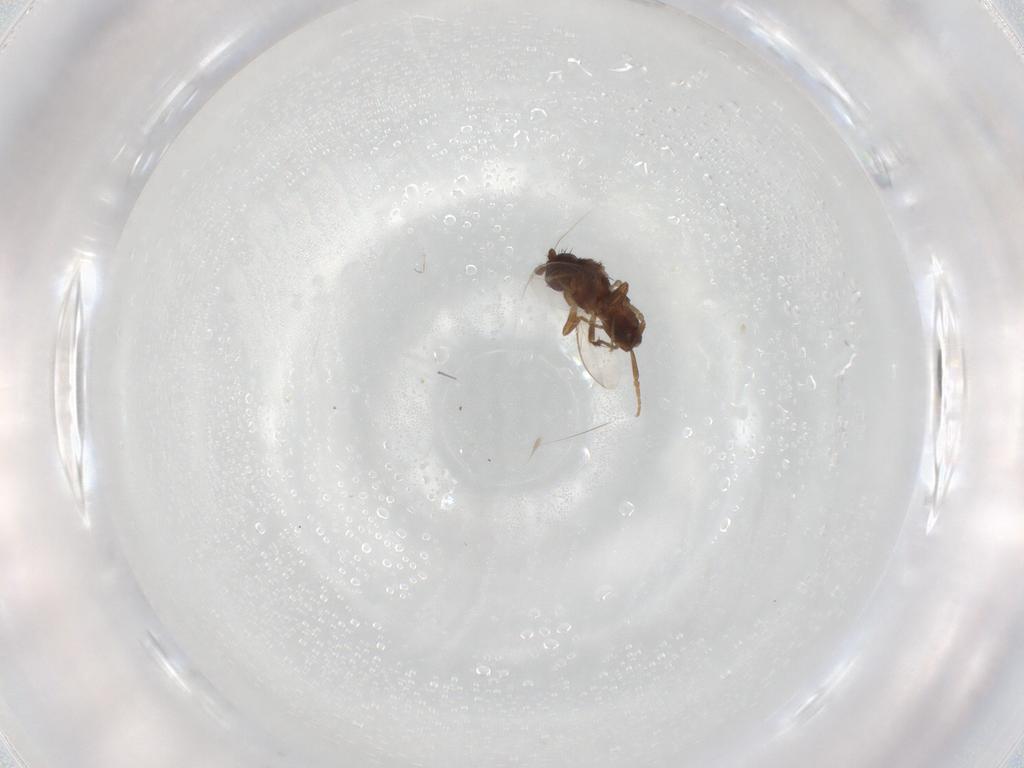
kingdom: Animalia
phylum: Arthropoda
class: Insecta
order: Diptera
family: Sphaeroceridae
